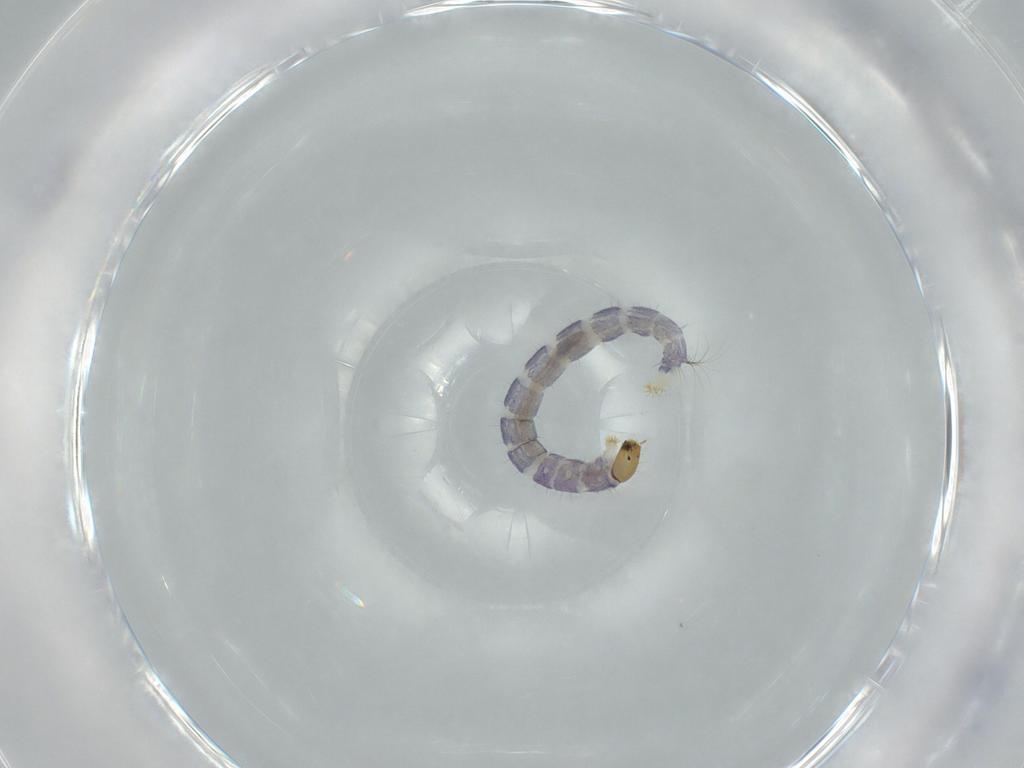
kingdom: Animalia
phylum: Arthropoda
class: Insecta
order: Diptera
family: Chironomidae
